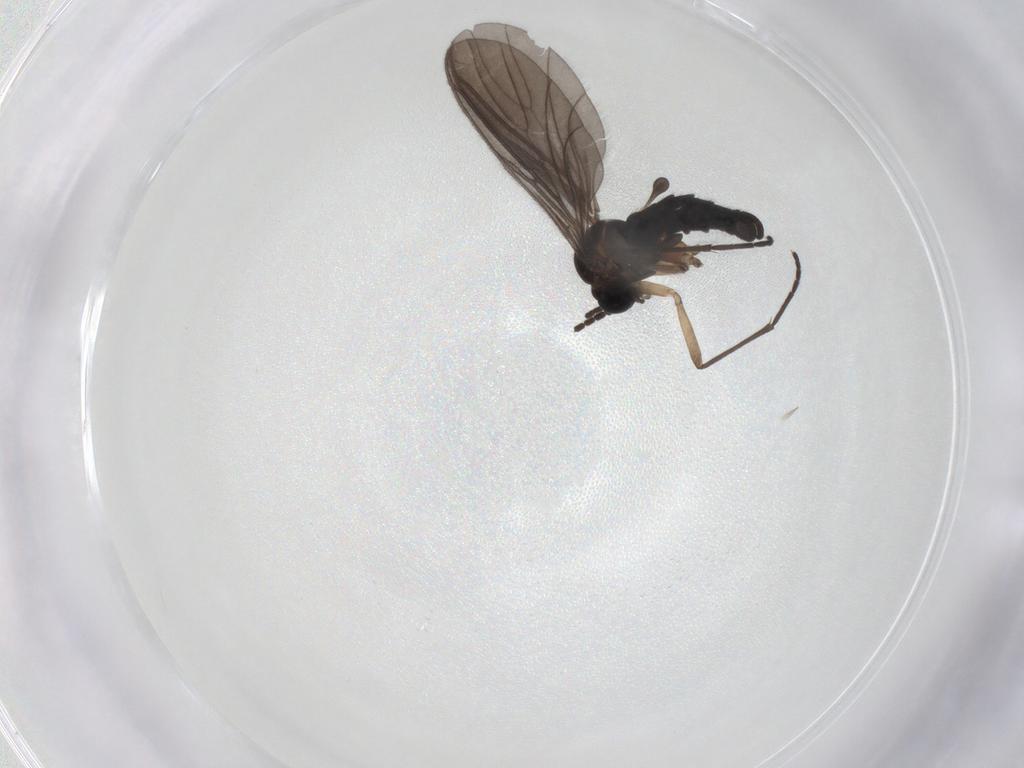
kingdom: Animalia
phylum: Arthropoda
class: Insecta
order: Diptera
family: Sciaridae
